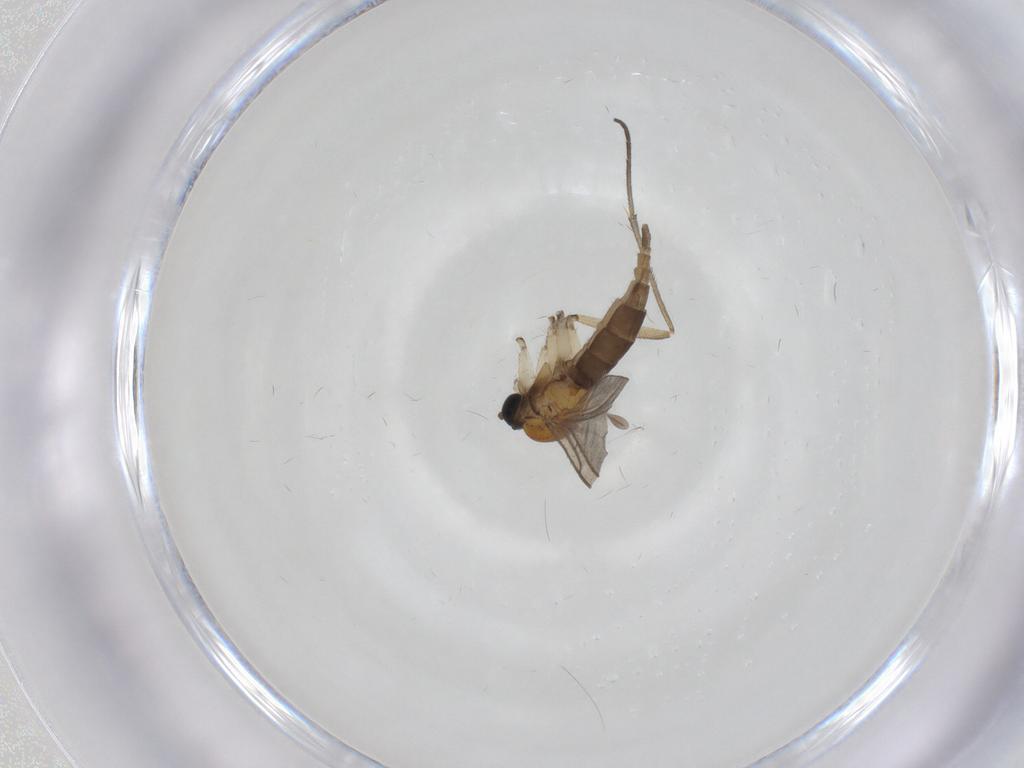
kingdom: Animalia
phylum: Arthropoda
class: Insecta
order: Diptera
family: Sciaridae
